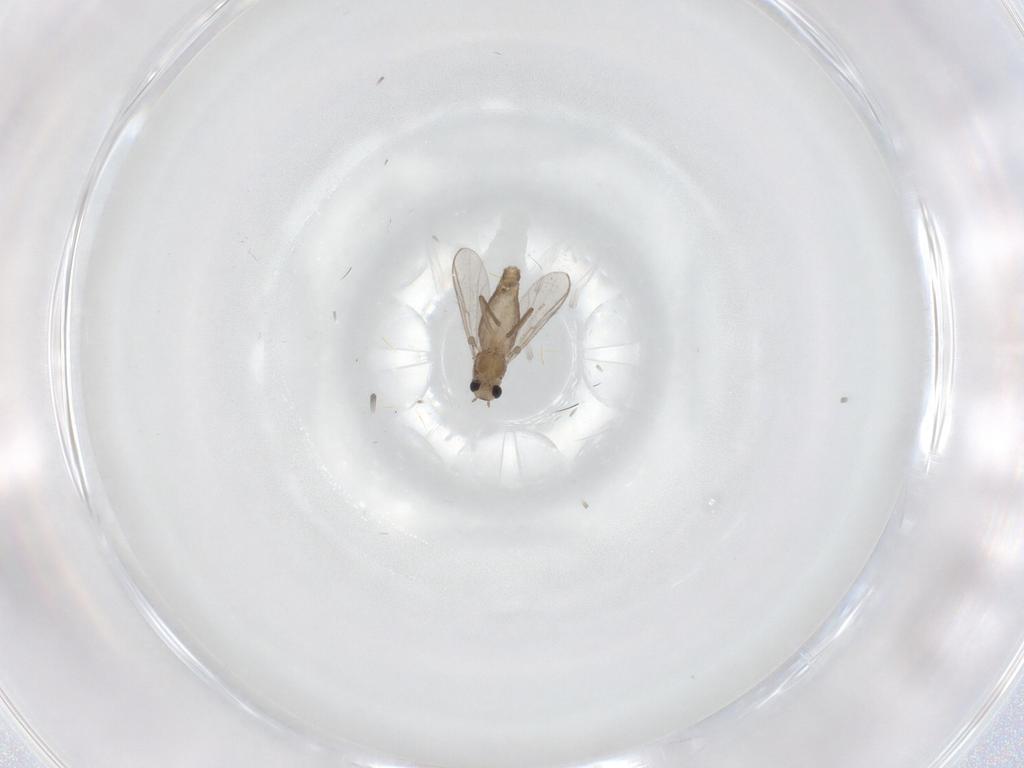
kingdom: Animalia
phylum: Arthropoda
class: Insecta
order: Diptera
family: Chironomidae
